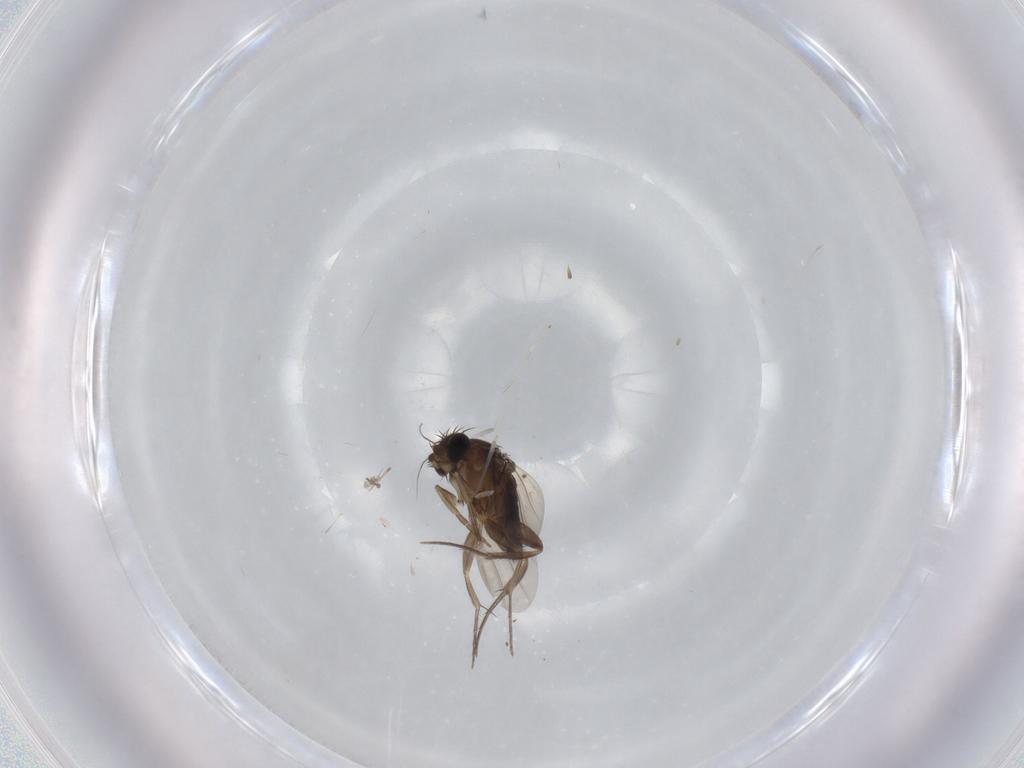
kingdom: Animalia
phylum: Arthropoda
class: Insecta
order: Diptera
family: Phoridae
